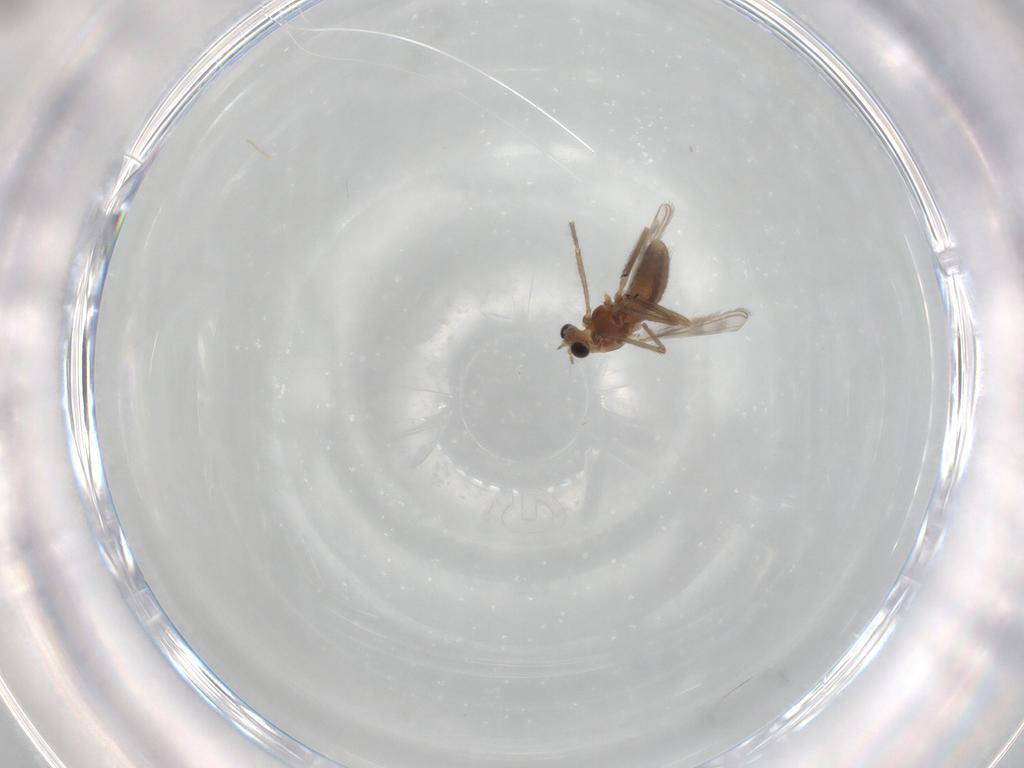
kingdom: Animalia
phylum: Arthropoda
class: Insecta
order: Diptera
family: Chironomidae
